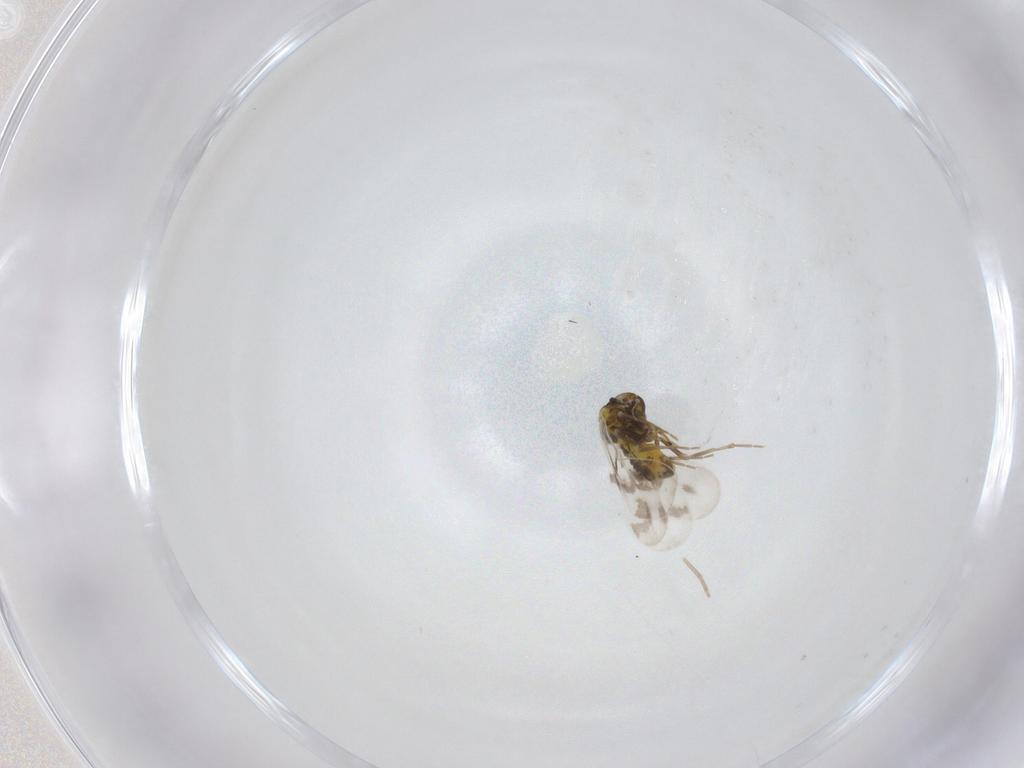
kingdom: Animalia
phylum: Arthropoda
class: Insecta
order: Hemiptera
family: Aleyrodidae
